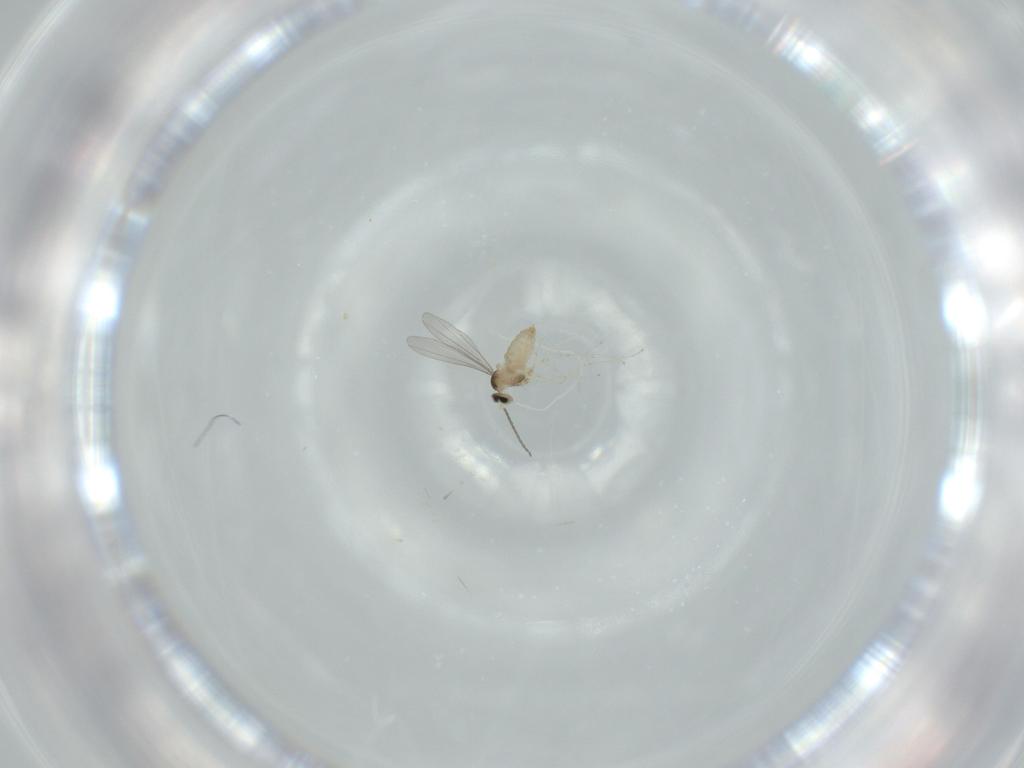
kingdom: Animalia
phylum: Arthropoda
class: Insecta
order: Diptera
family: Cecidomyiidae
